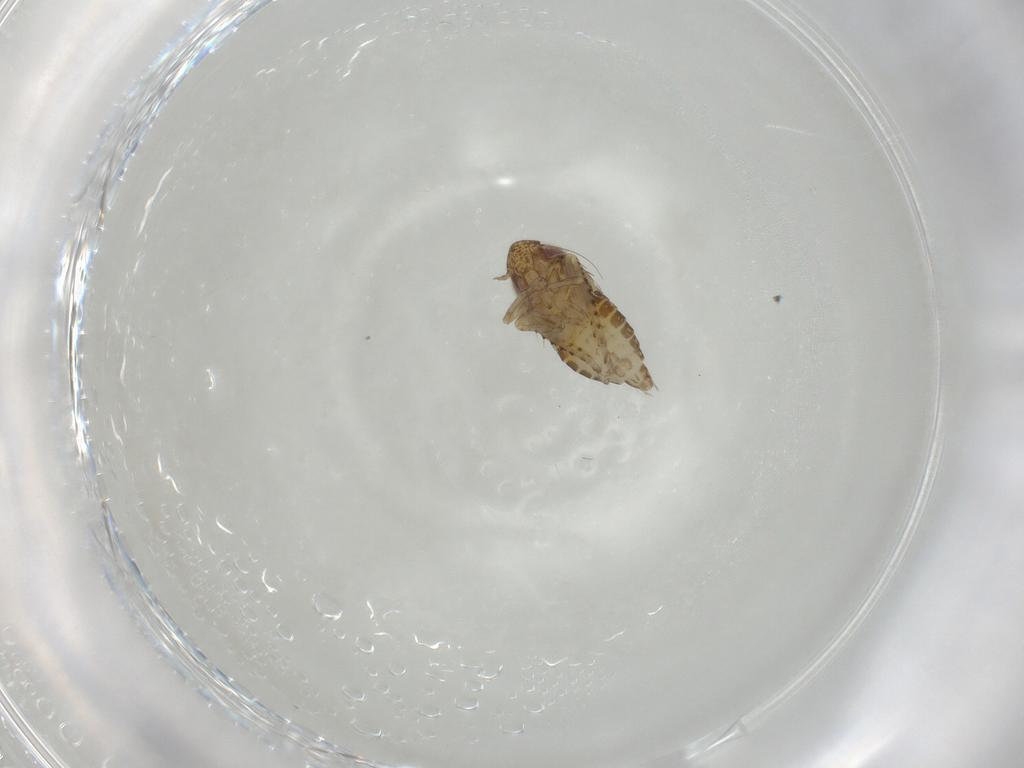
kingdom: Animalia
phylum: Arthropoda
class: Insecta
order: Hemiptera
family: Cicadellidae
